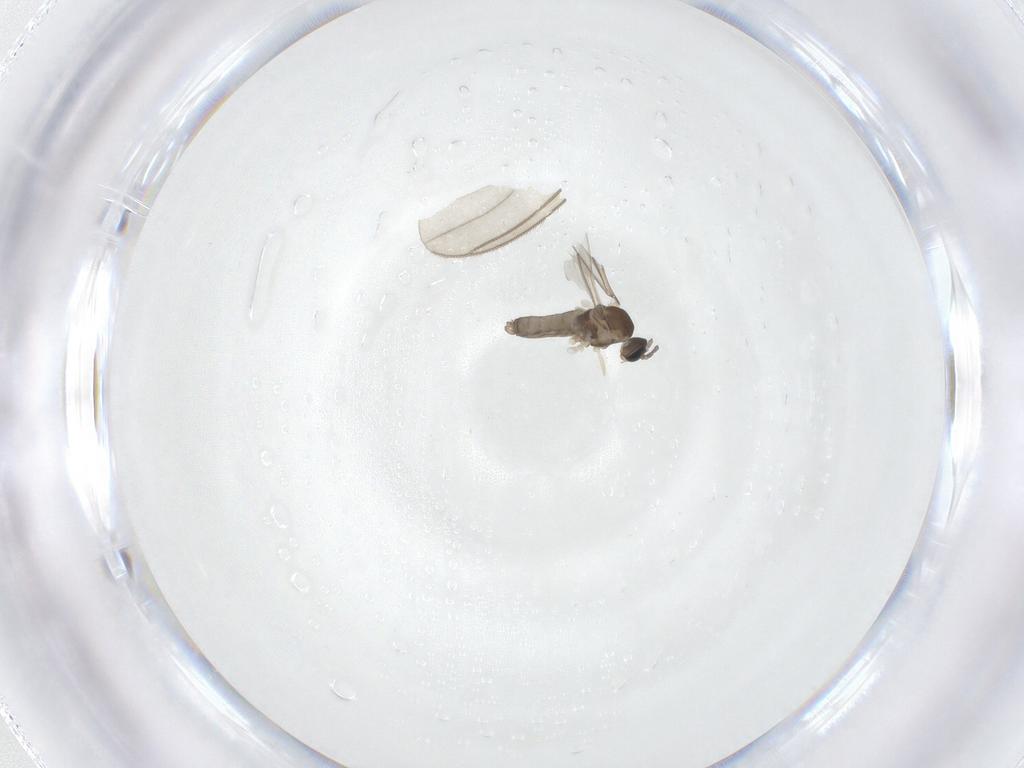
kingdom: Animalia
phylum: Arthropoda
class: Insecta
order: Diptera
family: Cecidomyiidae
